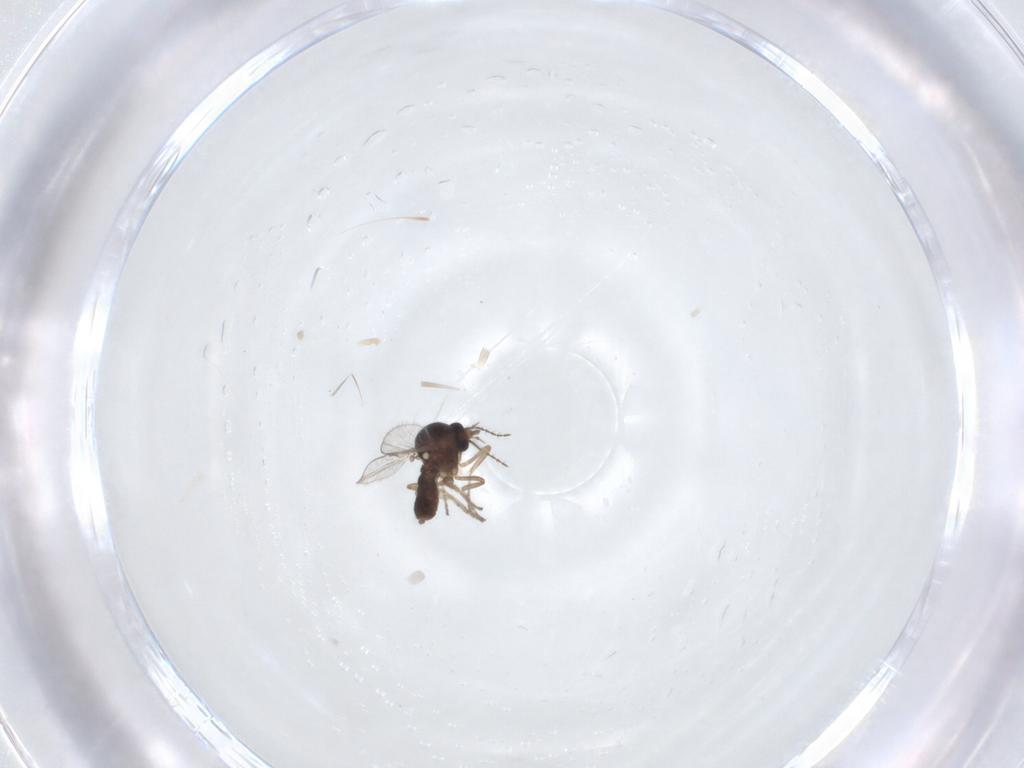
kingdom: Animalia
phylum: Arthropoda
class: Insecta
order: Diptera
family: Ceratopogonidae
